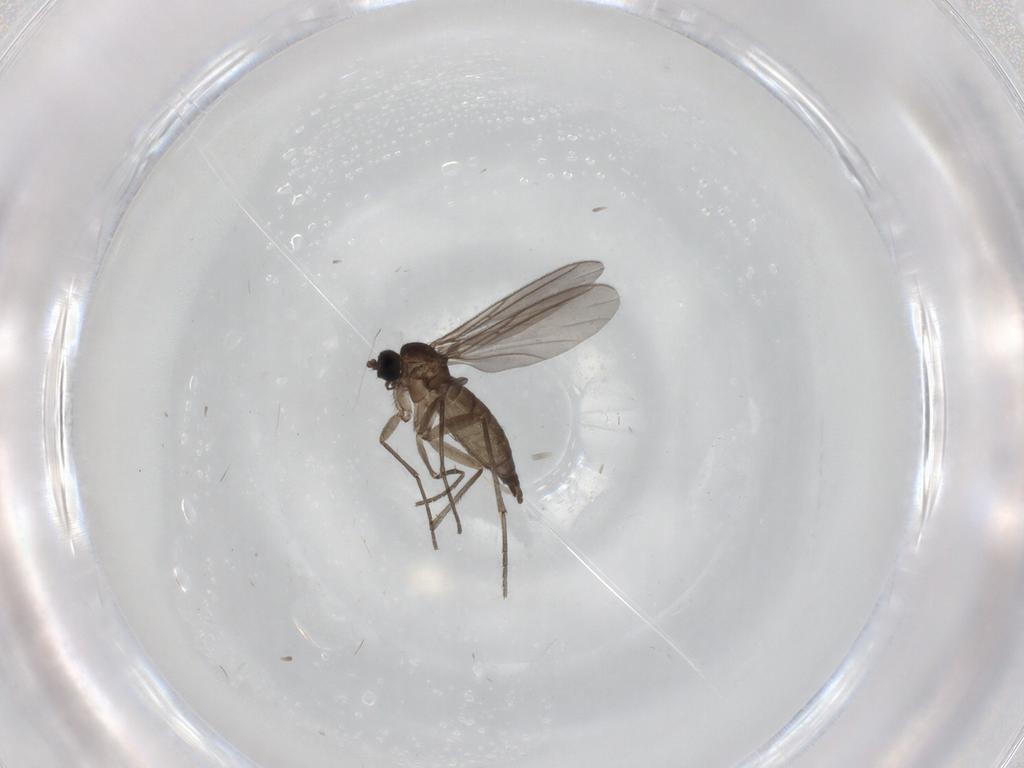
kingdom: Animalia
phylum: Arthropoda
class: Insecta
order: Diptera
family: Sciaridae
